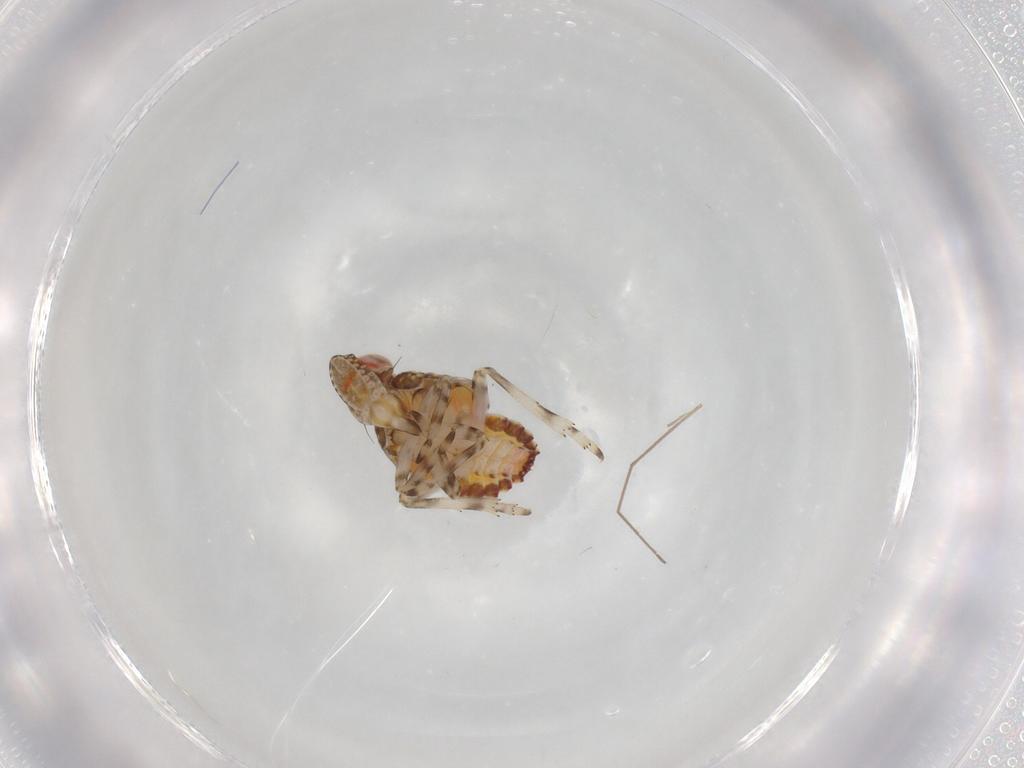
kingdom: Animalia
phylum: Arthropoda
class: Insecta
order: Hemiptera
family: Tropiduchidae
